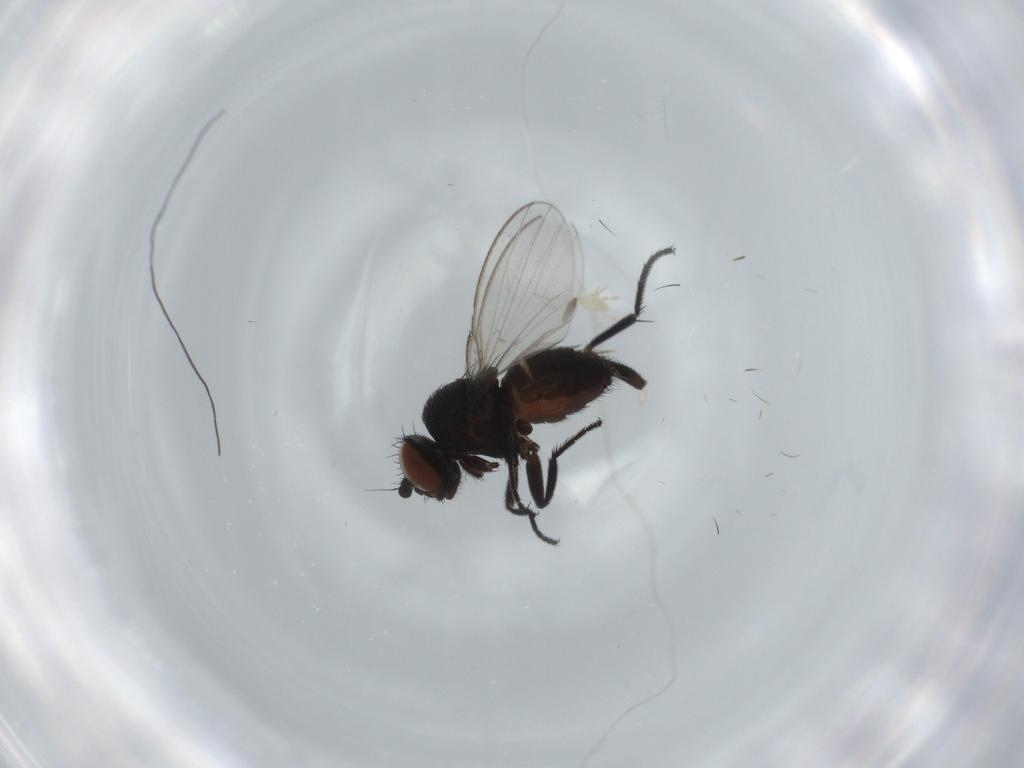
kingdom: Animalia
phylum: Arthropoda
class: Insecta
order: Diptera
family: Milichiidae
